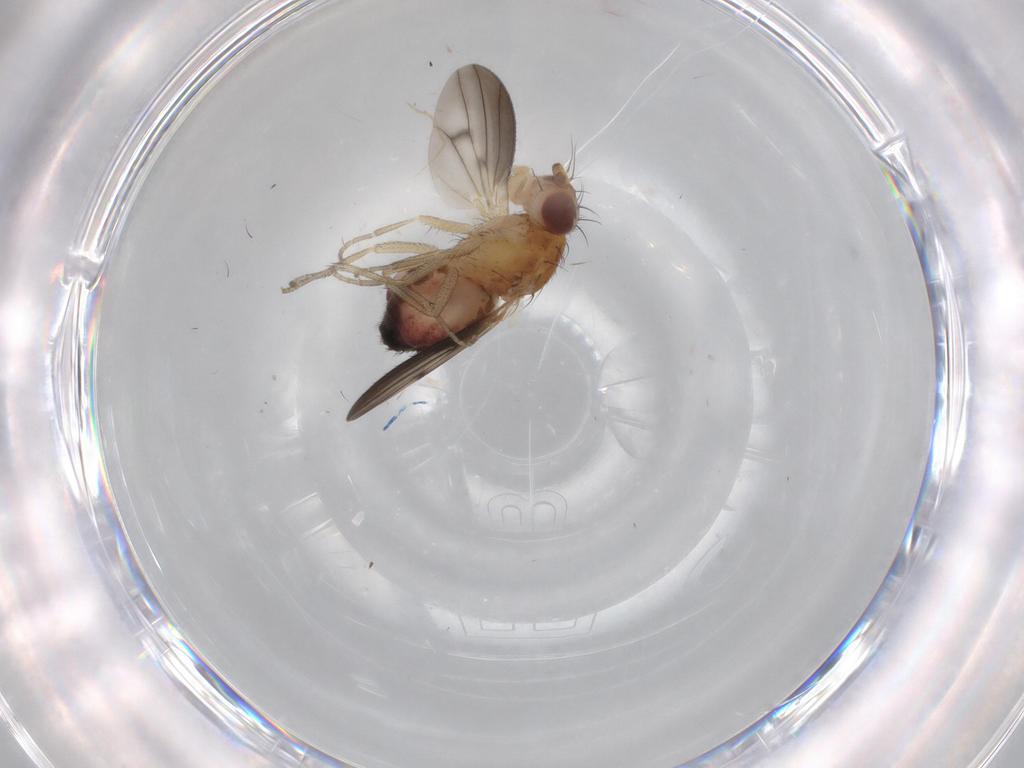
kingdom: Animalia
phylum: Arthropoda
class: Insecta
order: Diptera
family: Heleomyzidae
